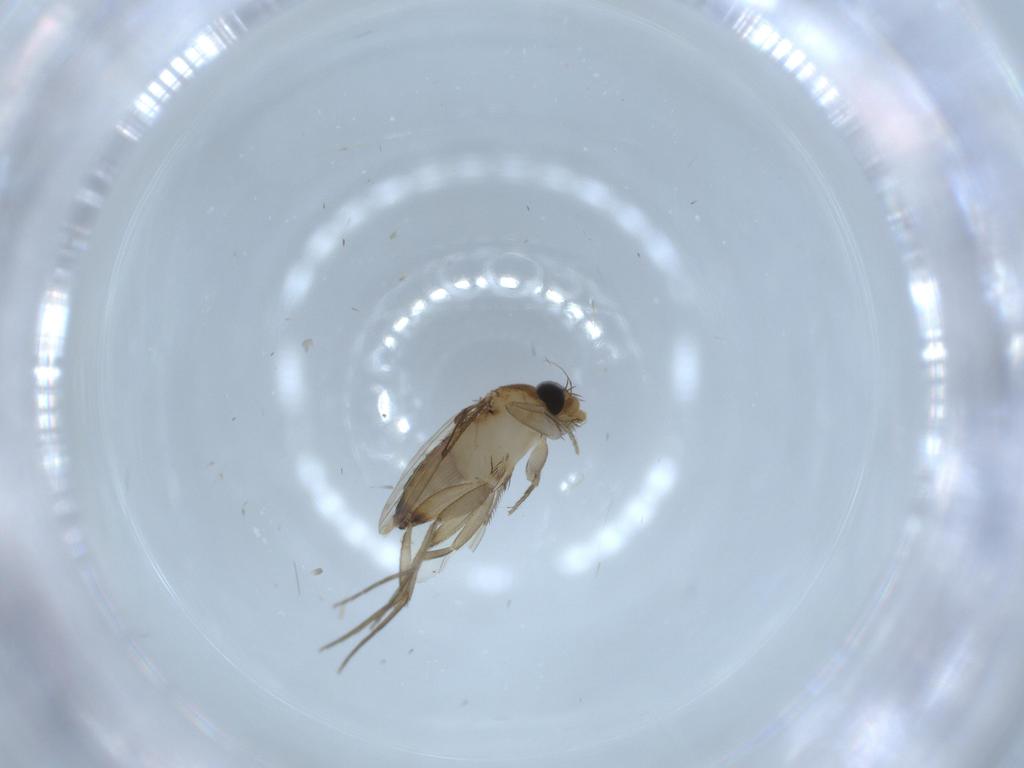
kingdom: Animalia
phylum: Arthropoda
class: Insecta
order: Diptera
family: Phoridae
